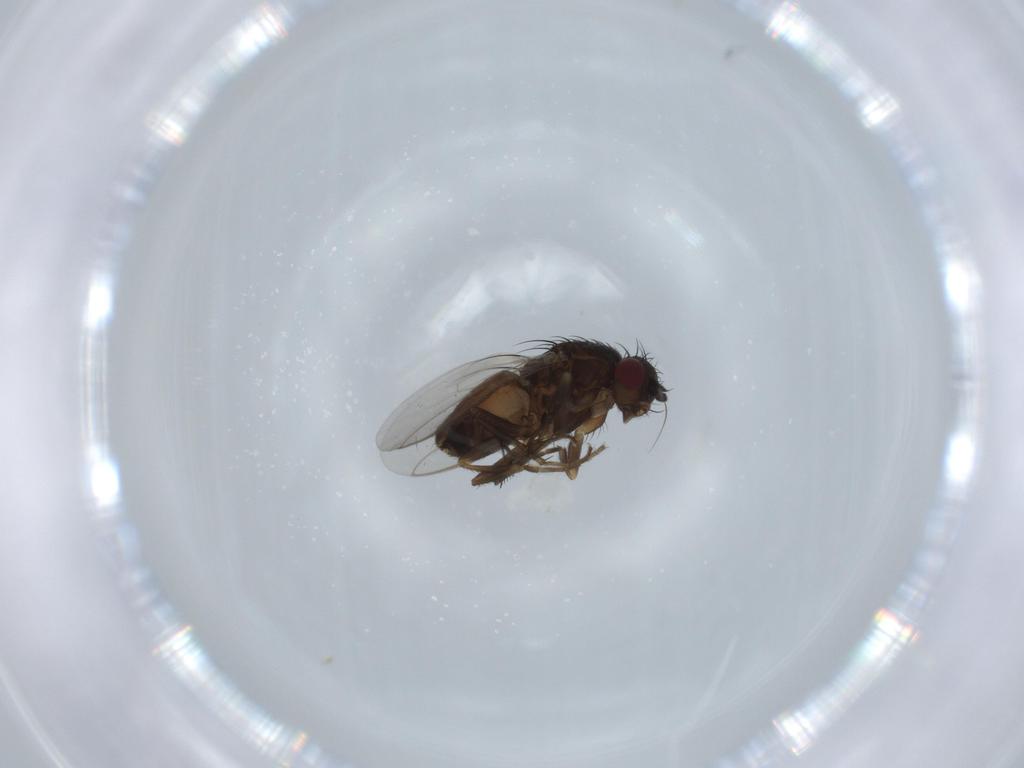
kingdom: Animalia
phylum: Arthropoda
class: Insecta
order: Diptera
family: Sphaeroceridae
